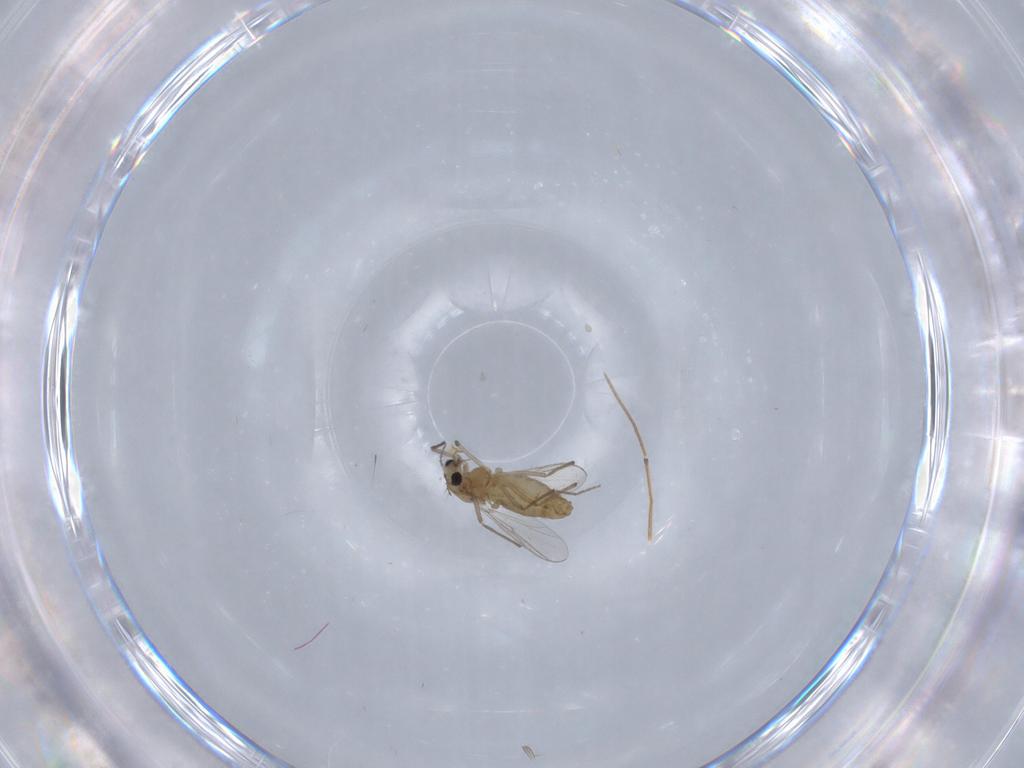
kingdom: Animalia
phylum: Arthropoda
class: Insecta
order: Diptera
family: Chironomidae
